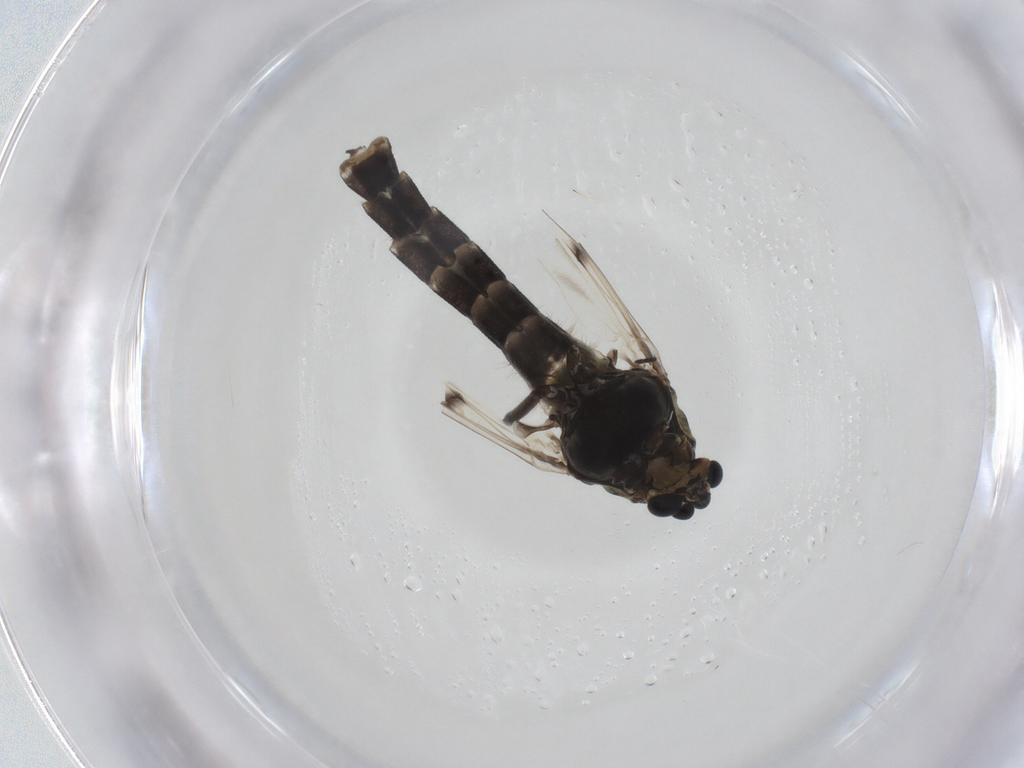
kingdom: Animalia
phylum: Arthropoda
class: Insecta
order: Diptera
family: Chironomidae
